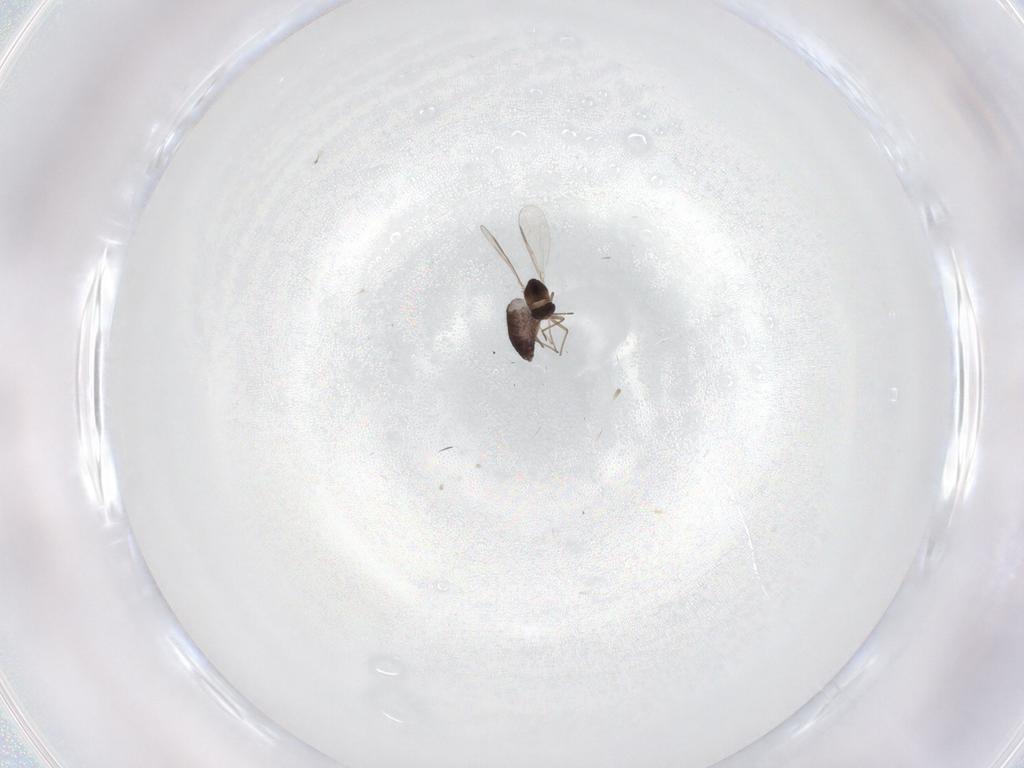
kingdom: Animalia
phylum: Arthropoda
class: Insecta
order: Diptera
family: Chironomidae
